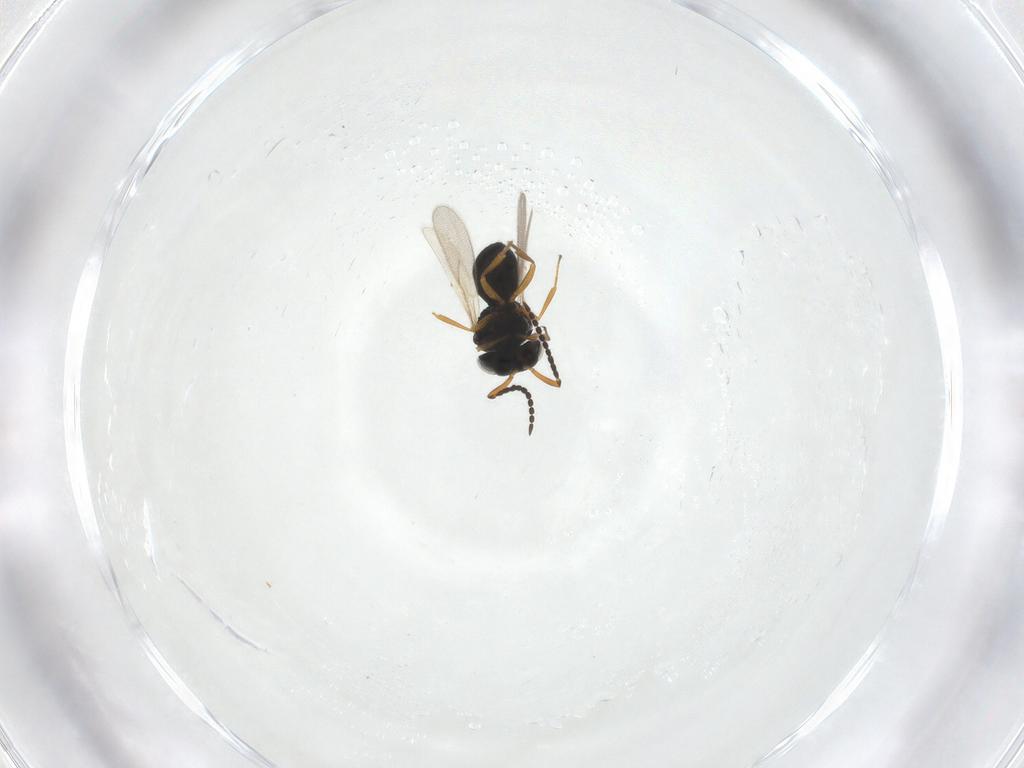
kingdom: Animalia
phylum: Arthropoda
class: Insecta
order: Hymenoptera
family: Scelionidae
